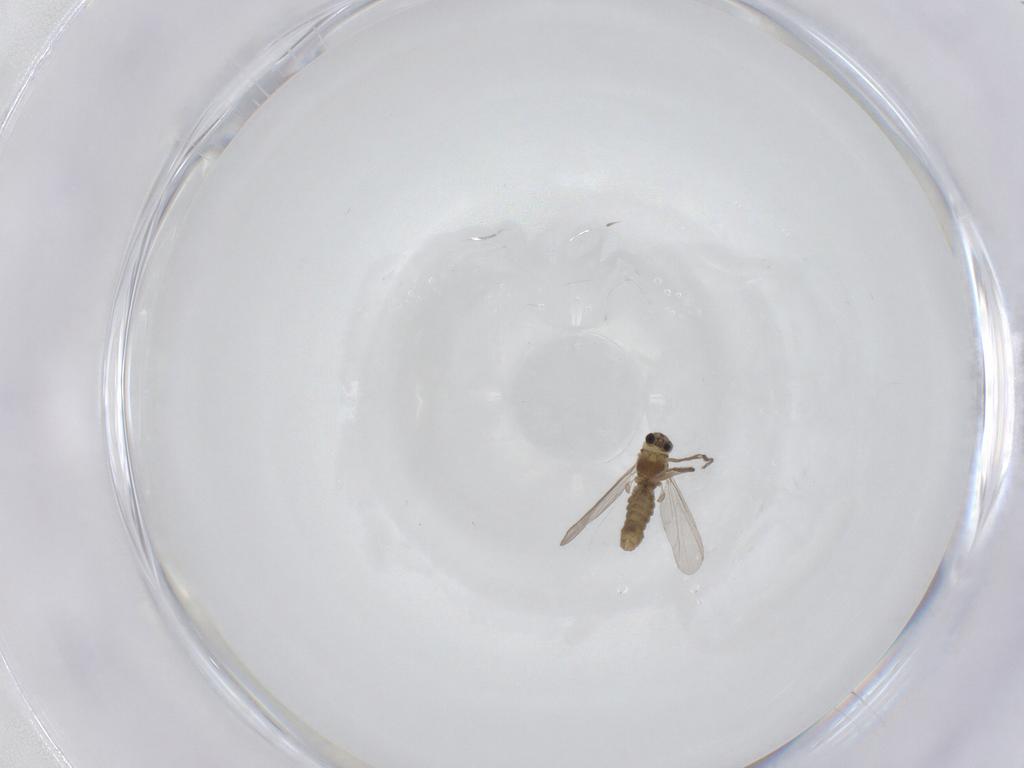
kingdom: Animalia
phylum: Arthropoda
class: Insecta
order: Diptera
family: Chironomidae
